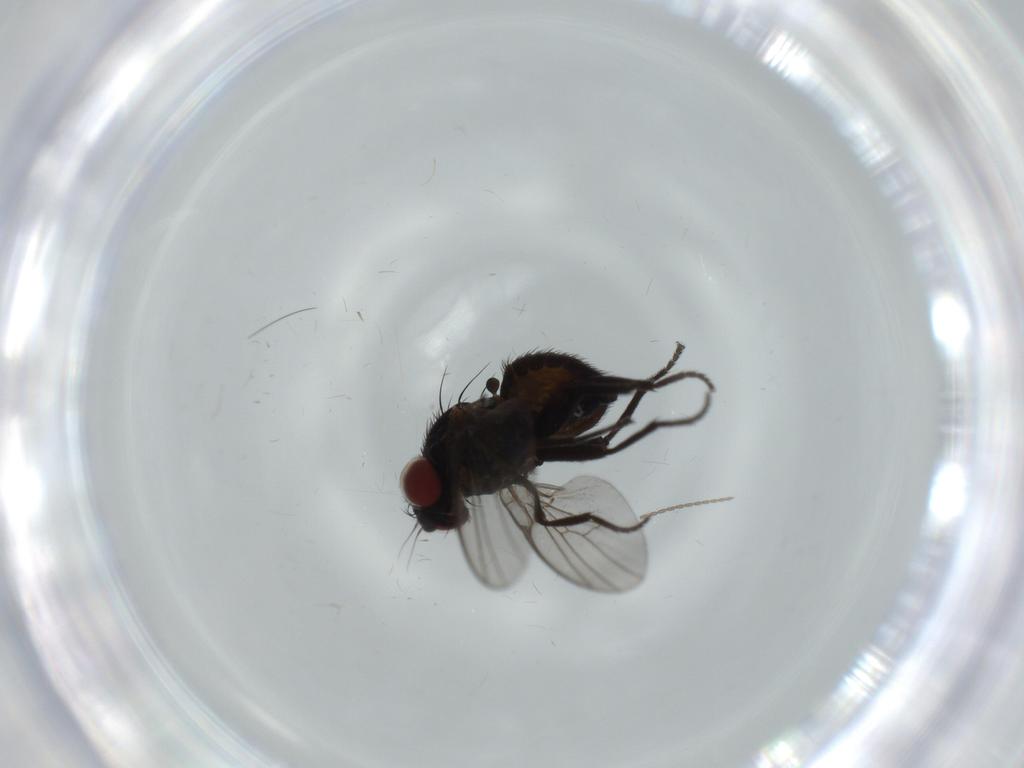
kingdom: Animalia
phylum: Arthropoda
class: Insecta
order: Diptera
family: Agromyzidae
